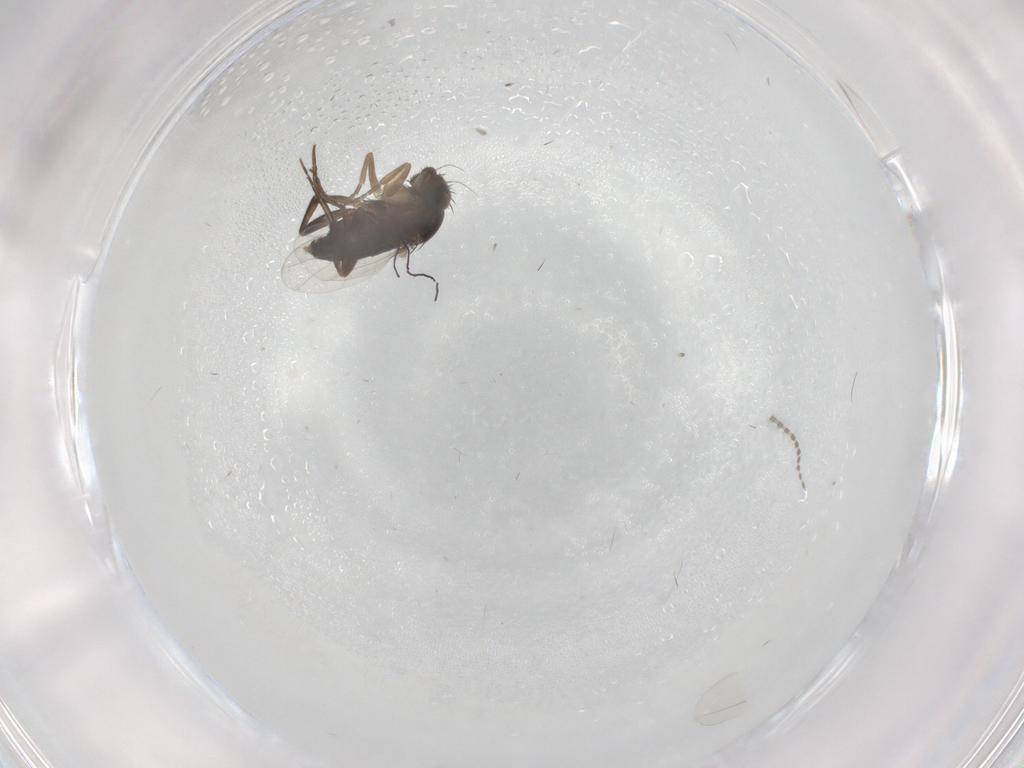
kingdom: Animalia
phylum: Arthropoda
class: Insecta
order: Diptera
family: Phoridae
